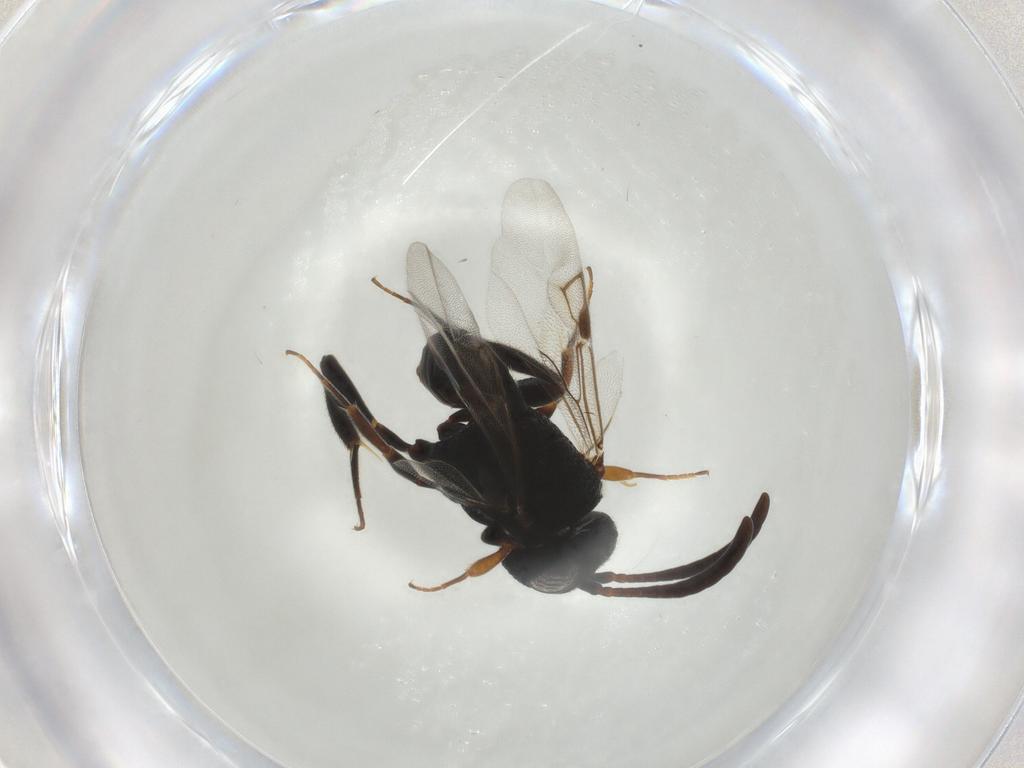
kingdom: Animalia
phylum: Arthropoda
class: Insecta
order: Hymenoptera
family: Evaniidae
